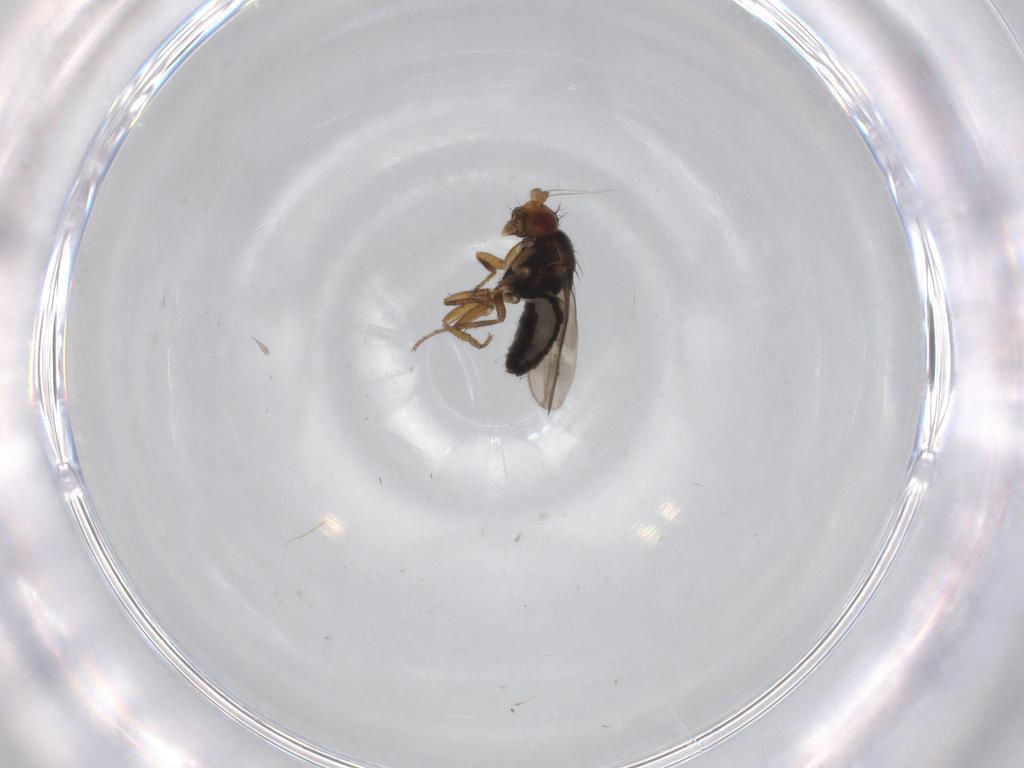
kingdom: Animalia
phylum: Arthropoda
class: Insecta
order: Diptera
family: Sphaeroceridae
